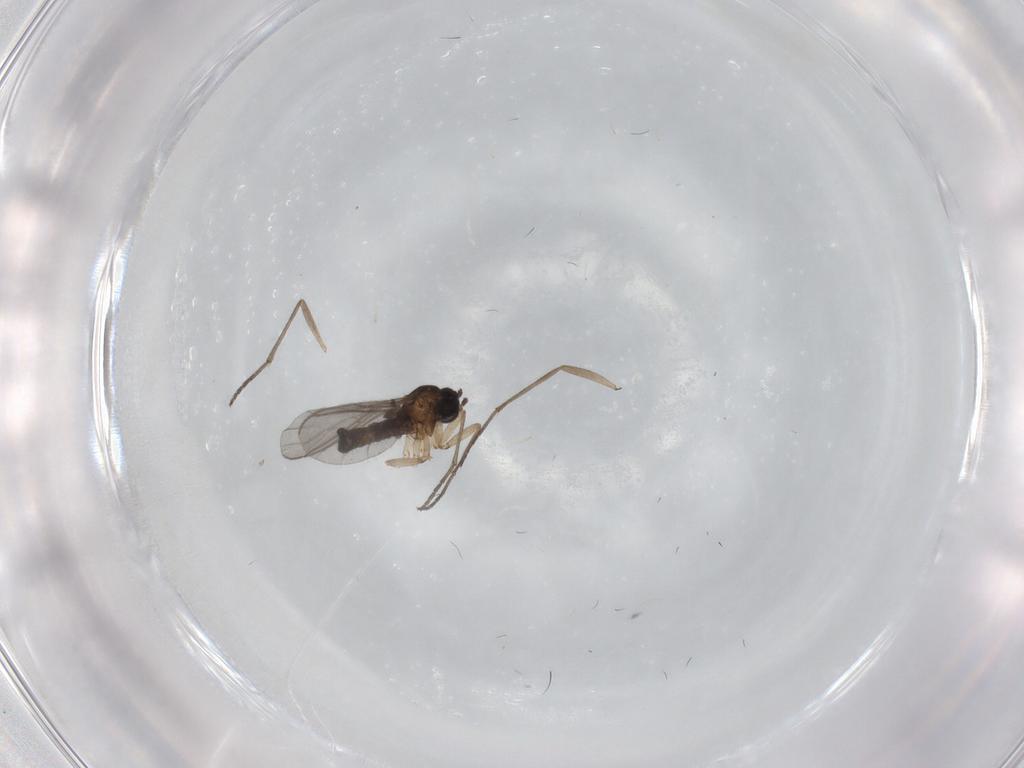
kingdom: Animalia
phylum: Arthropoda
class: Insecta
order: Diptera
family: Sciaridae
